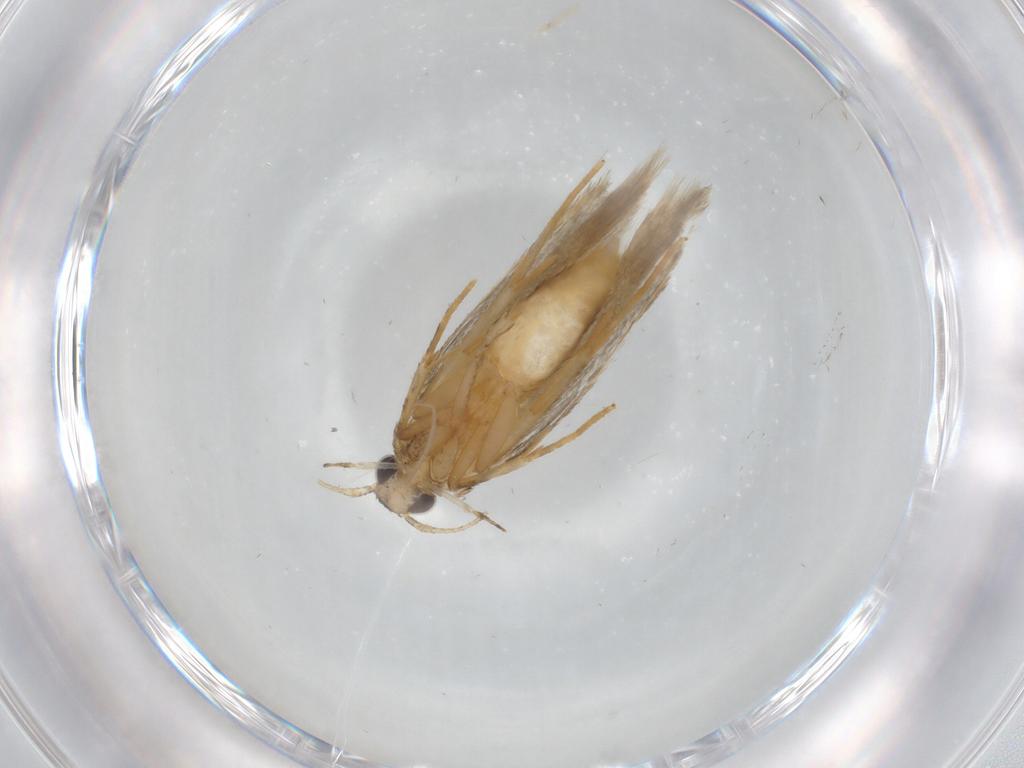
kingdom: Animalia
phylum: Arthropoda
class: Insecta
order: Lepidoptera
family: Autostichidae
